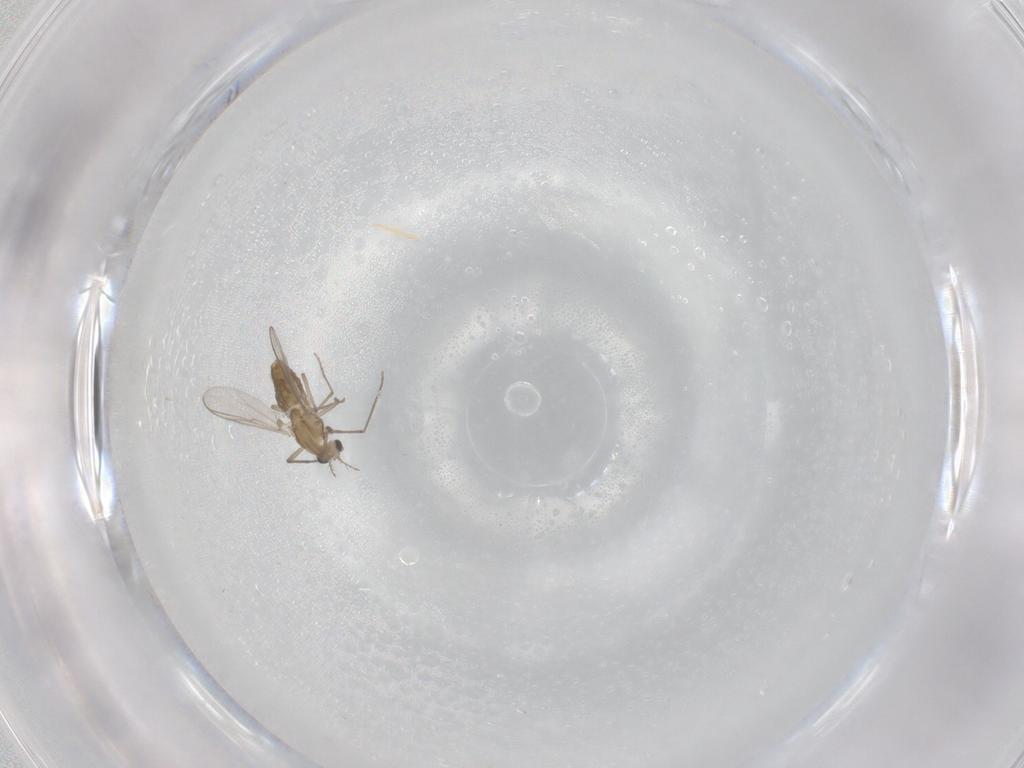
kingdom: Animalia
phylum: Arthropoda
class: Insecta
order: Diptera
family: Chironomidae
